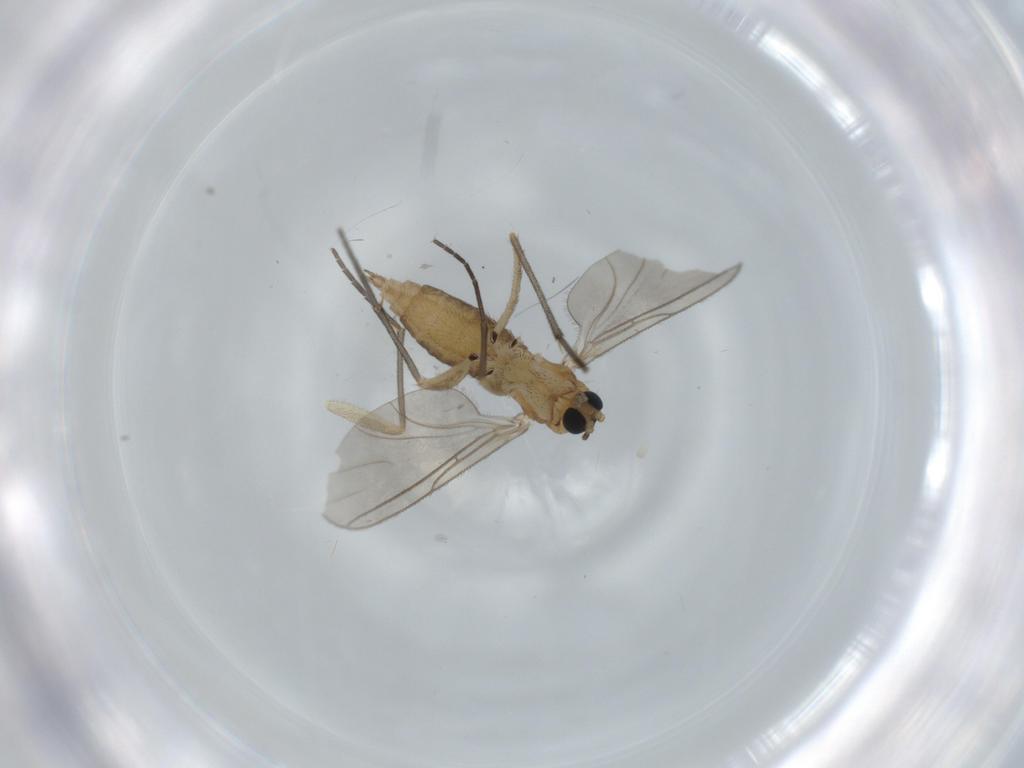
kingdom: Animalia
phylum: Arthropoda
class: Insecta
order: Diptera
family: Sciaridae
